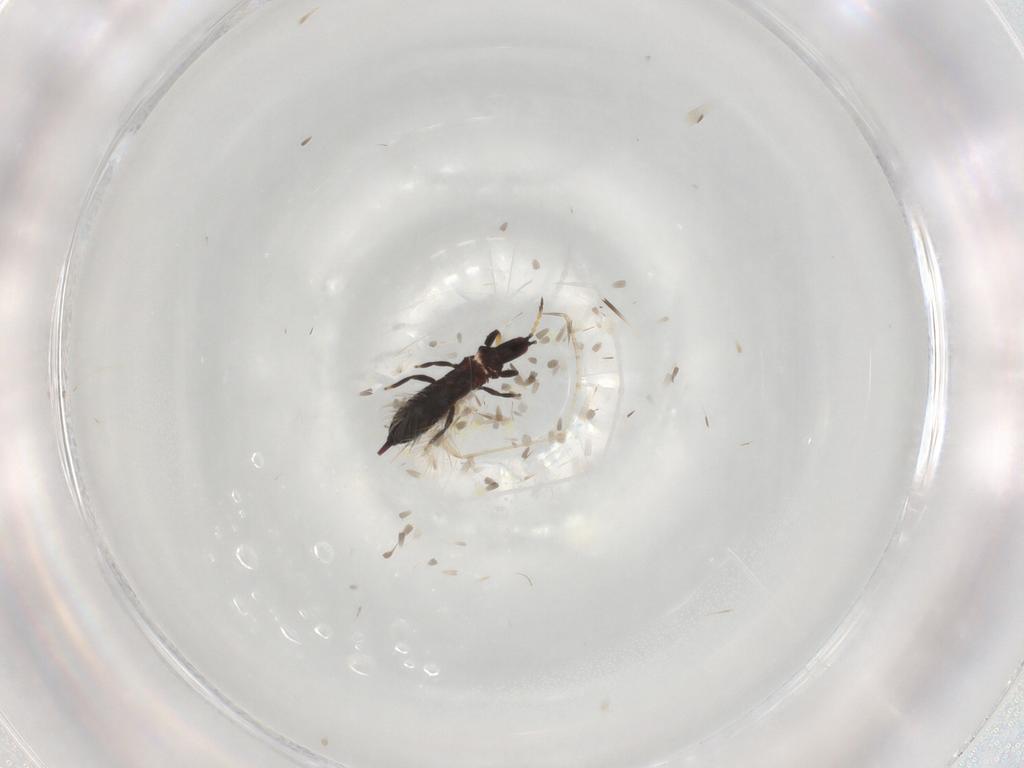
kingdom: Animalia
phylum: Arthropoda
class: Insecta
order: Thysanoptera
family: Phlaeothripidae
